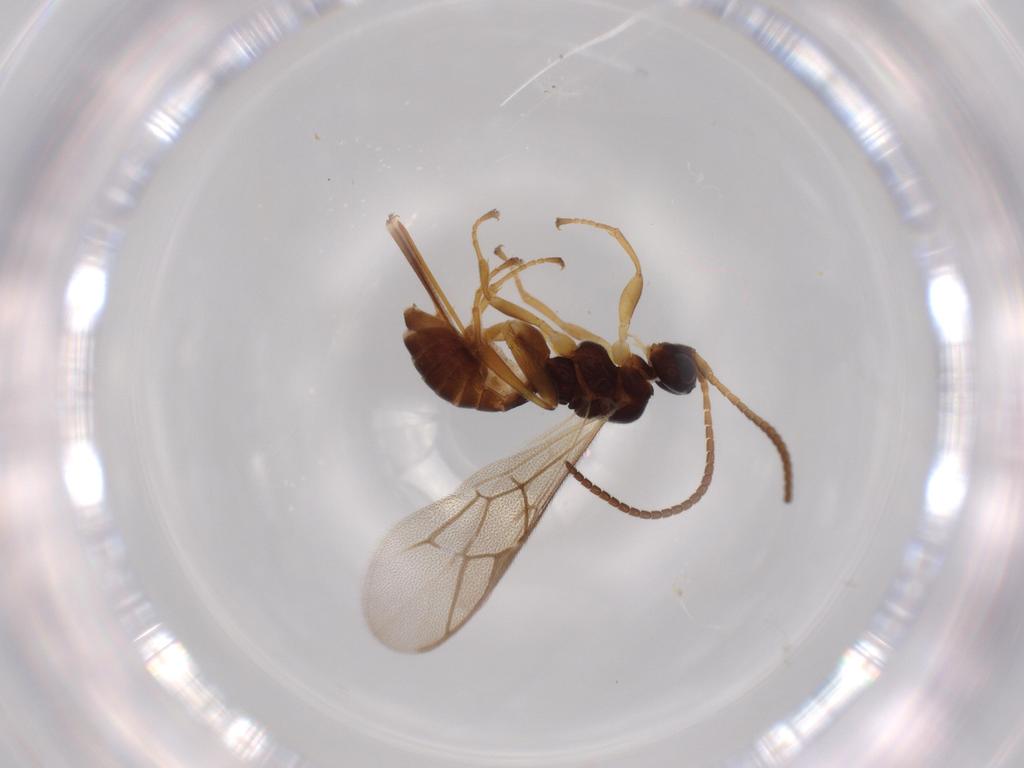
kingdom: Animalia
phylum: Arthropoda
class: Insecta
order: Hymenoptera
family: Ichneumonidae
